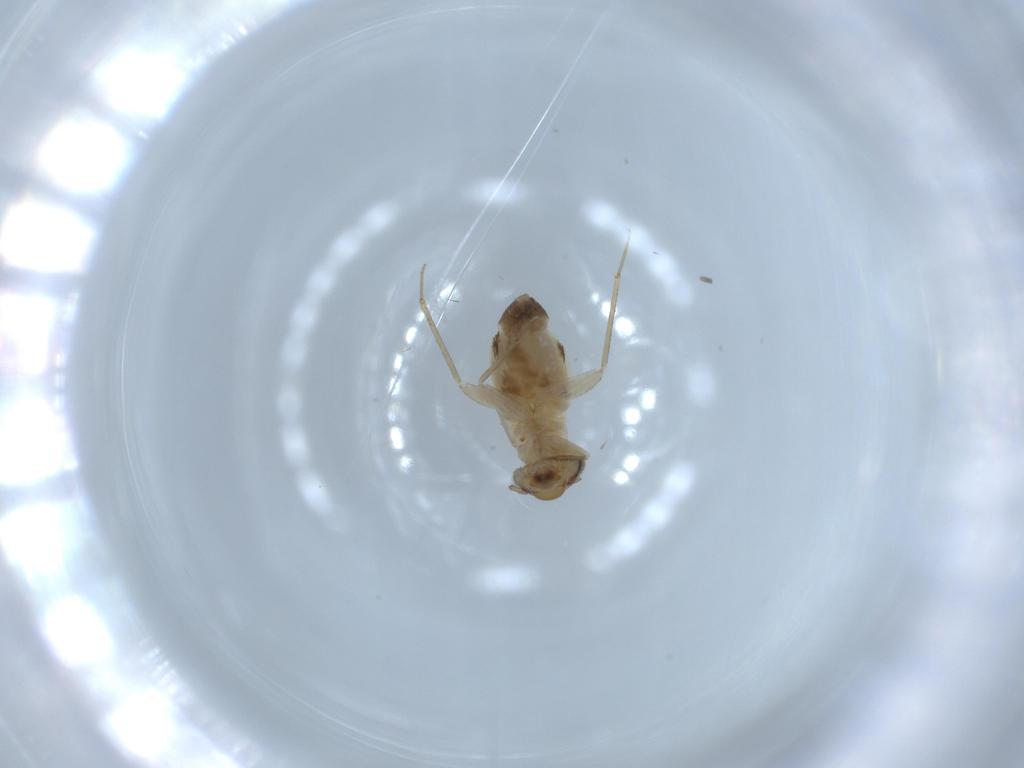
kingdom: Animalia
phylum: Arthropoda
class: Insecta
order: Psocodea
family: Lepidopsocidae
